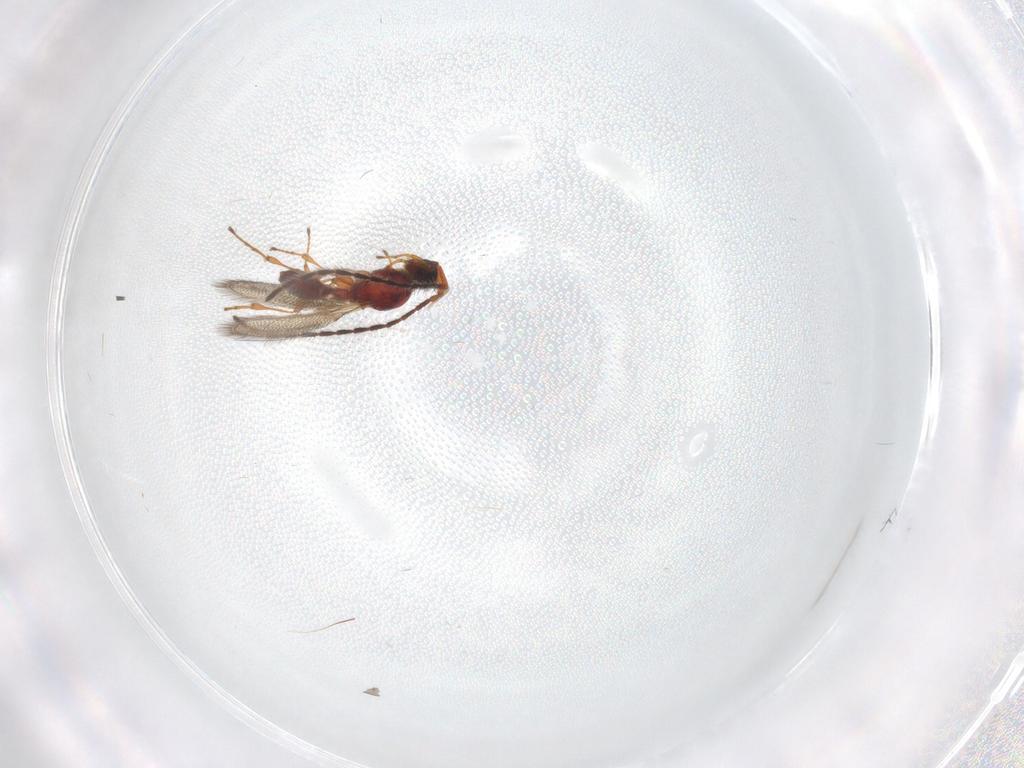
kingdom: Animalia
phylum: Arthropoda
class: Insecta
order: Hymenoptera
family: Diapriidae
